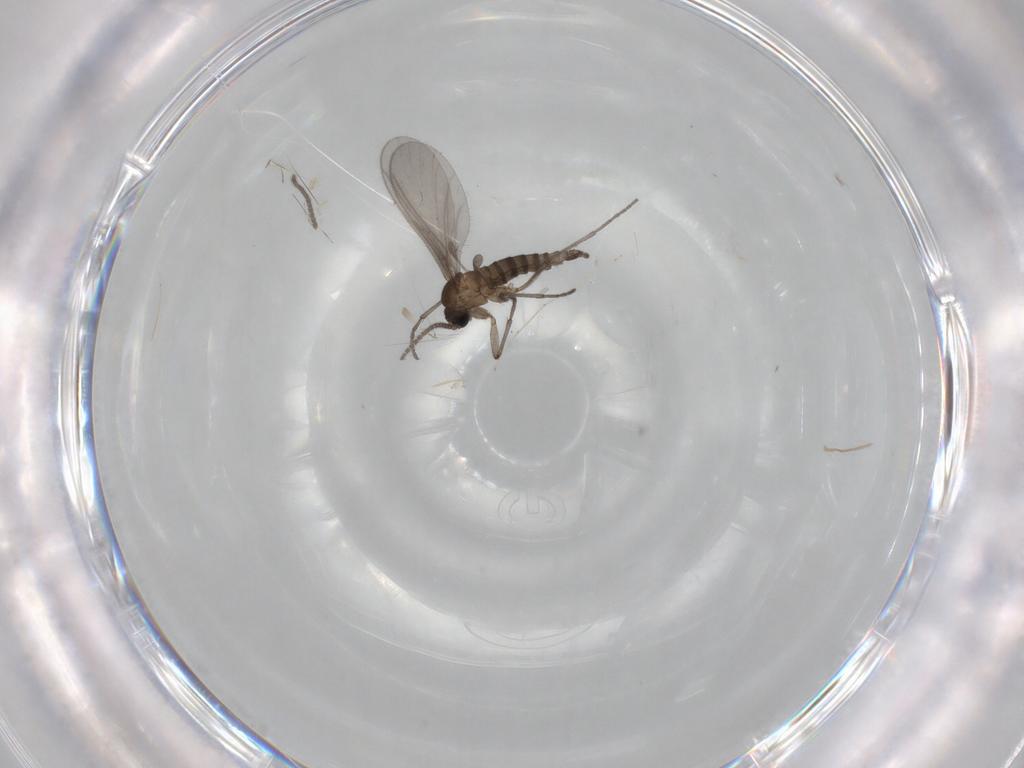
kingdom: Animalia
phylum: Arthropoda
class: Insecta
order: Diptera
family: Sciaridae
